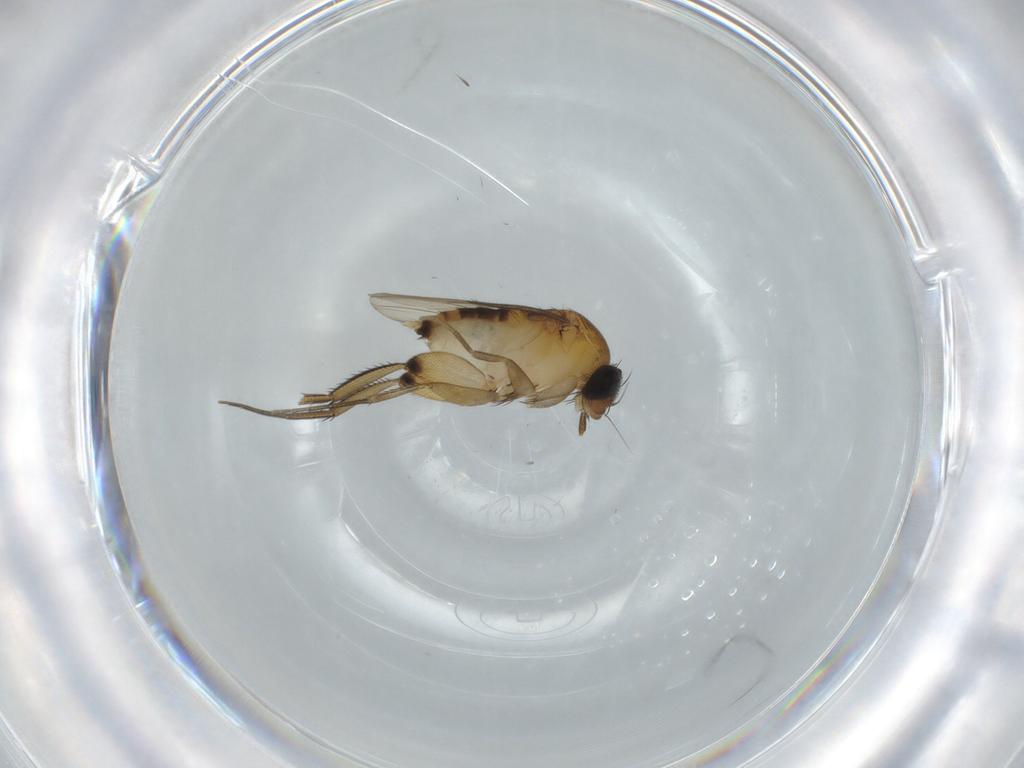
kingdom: Animalia
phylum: Arthropoda
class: Insecta
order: Diptera
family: Phoridae
